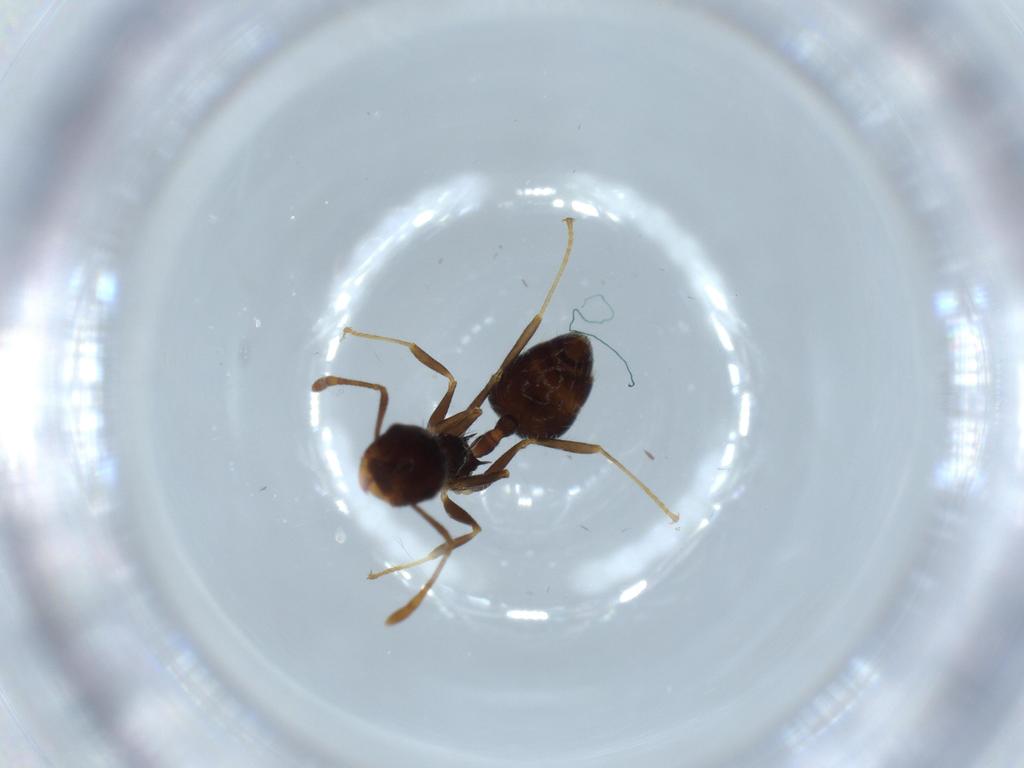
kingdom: Animalia
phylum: Arthropoda
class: Insecta
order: Hymenoptera
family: Formicidae
